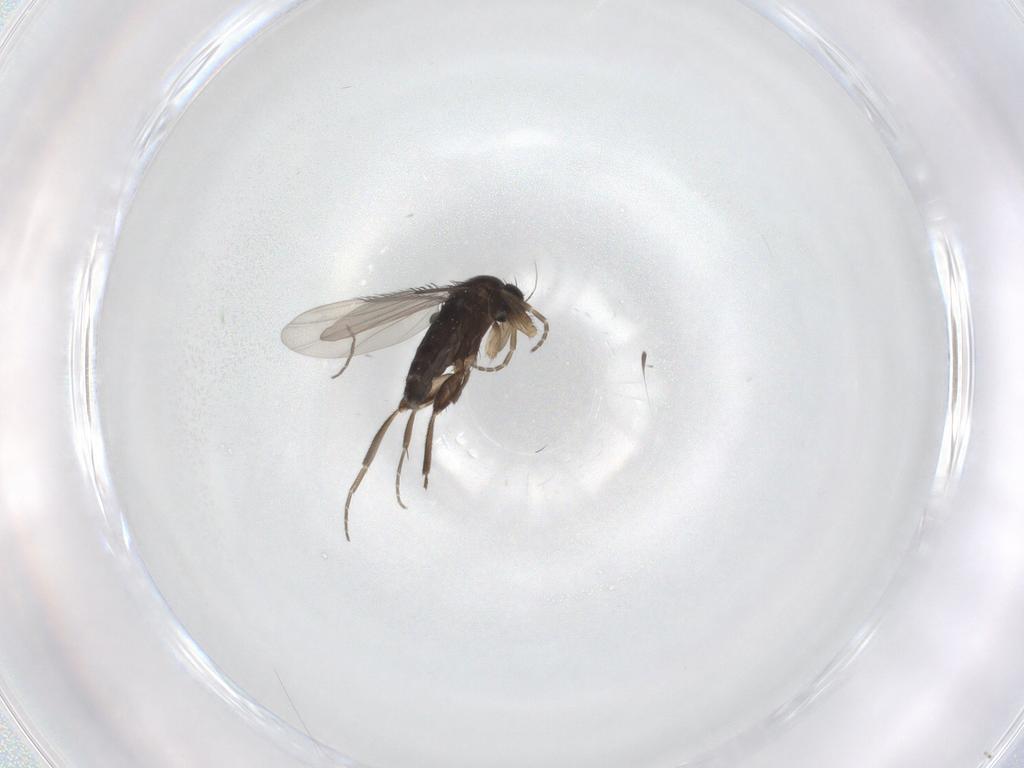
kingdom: Animalia
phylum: Arthropoda
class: Insecta
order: Diptera
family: Phoridae
